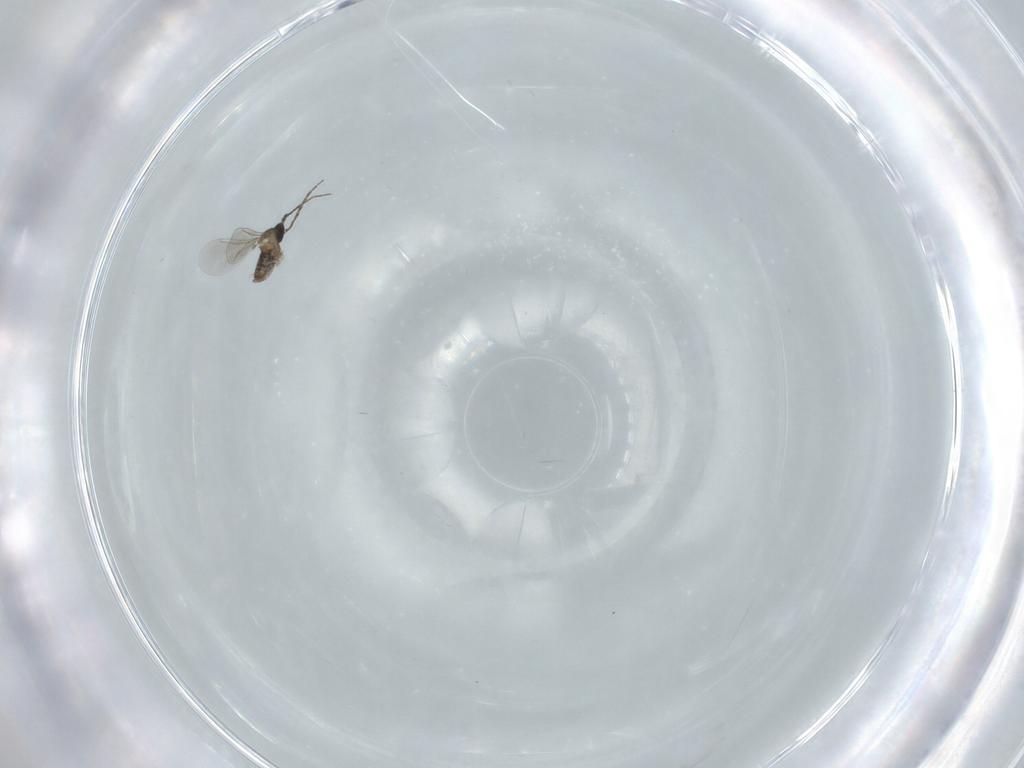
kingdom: Animalia
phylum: Arthropoda
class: Insecta
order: Diptera
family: Cecidomyiidae
